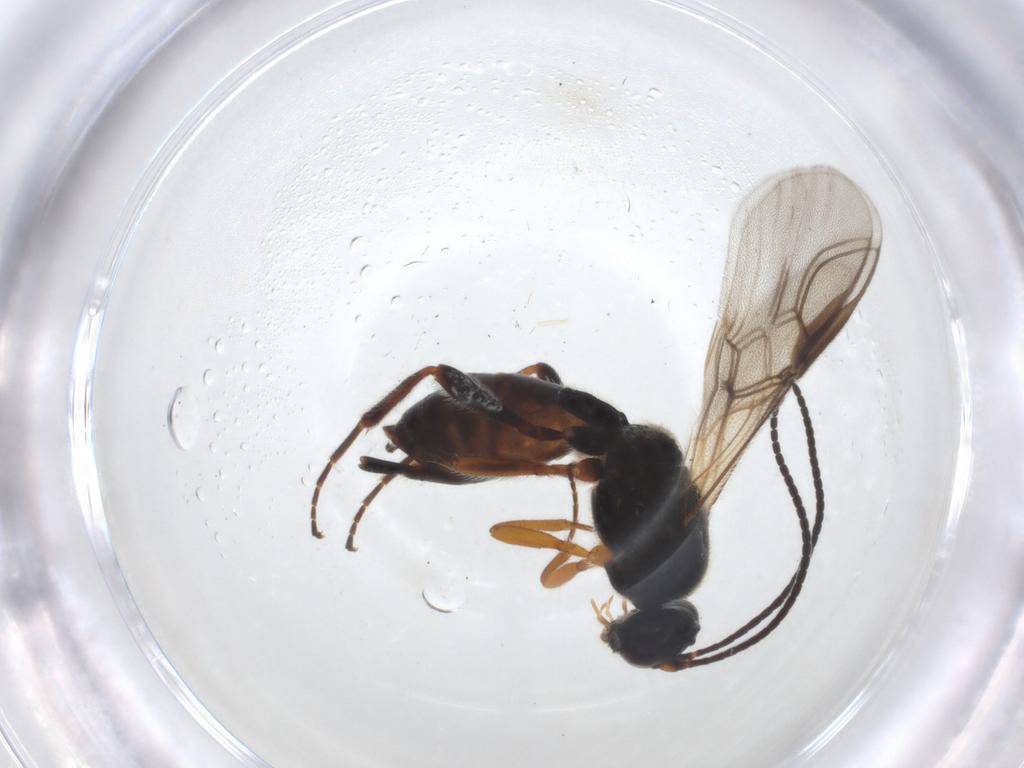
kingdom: Animalia
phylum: Arthropoda
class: Insecta
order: Hymenoptera
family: Braconidae
